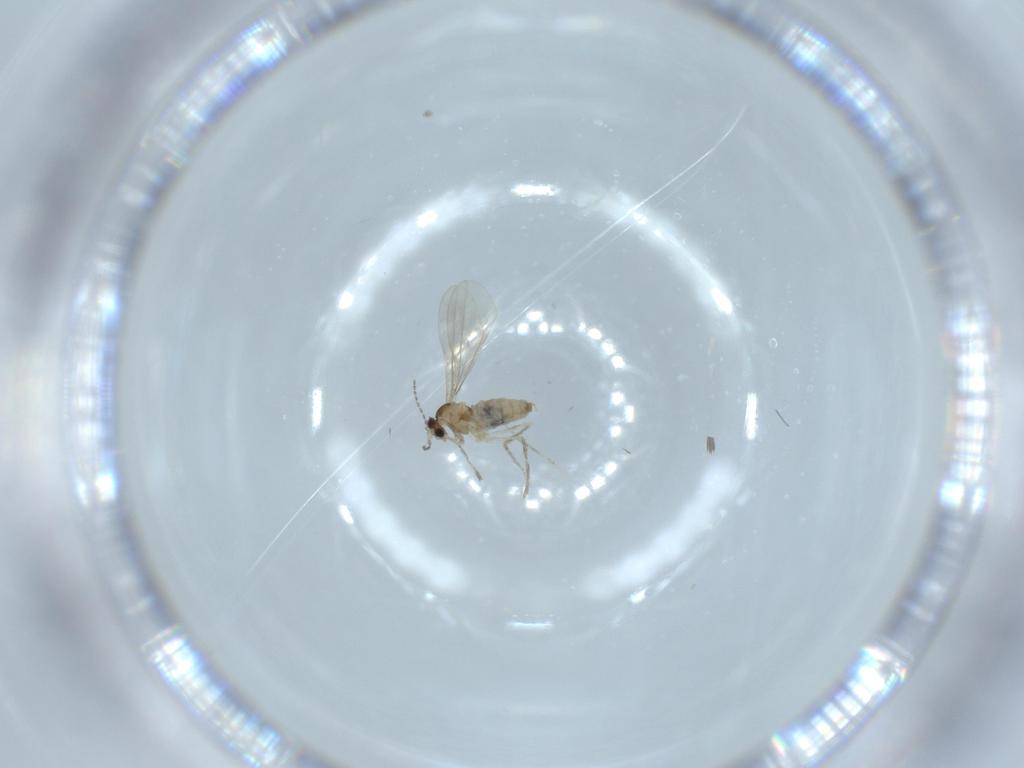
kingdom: Animalia
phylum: Arthropoda
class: Insecta
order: Diptera
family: Cecidomyiidae
